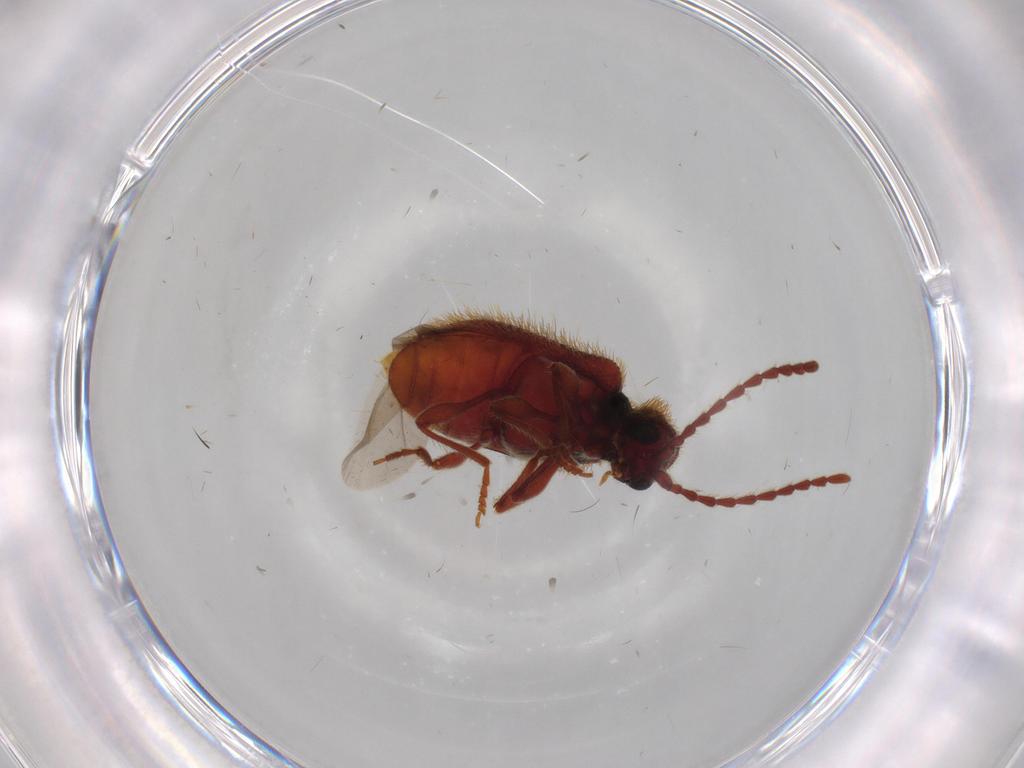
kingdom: Animalia
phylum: Arthropoda
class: Insecta
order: Coleoptera
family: Ptinidae
